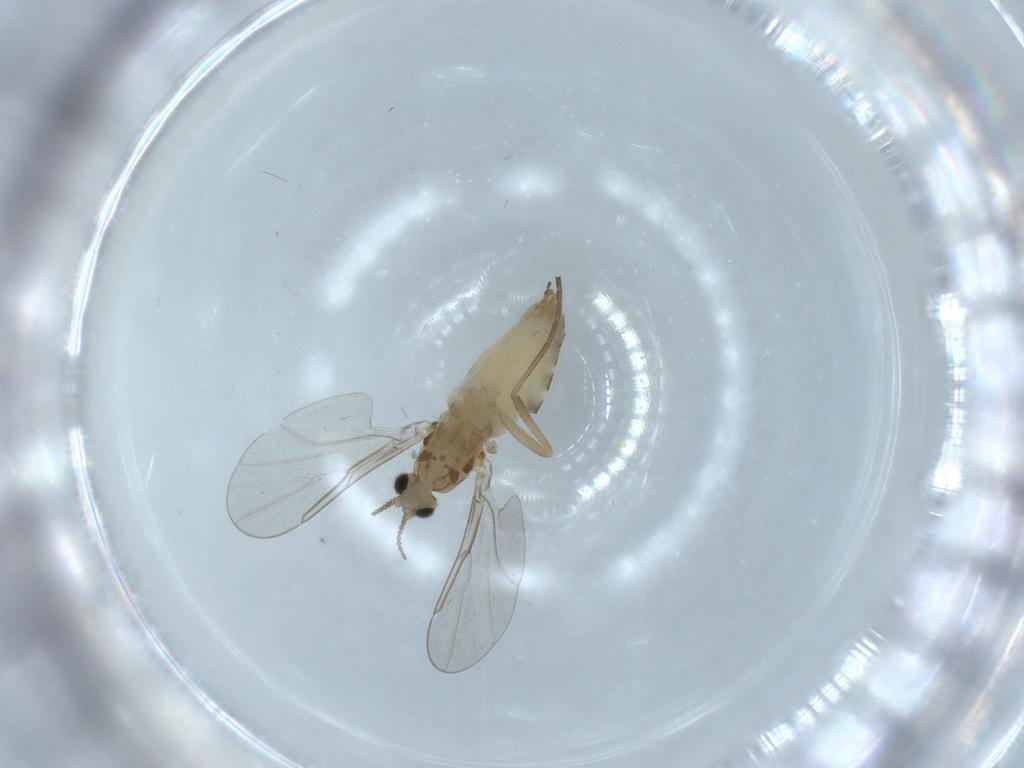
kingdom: Animalia
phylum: Arthropoda
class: Insecta
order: Diptera
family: Cecidomyiidae
